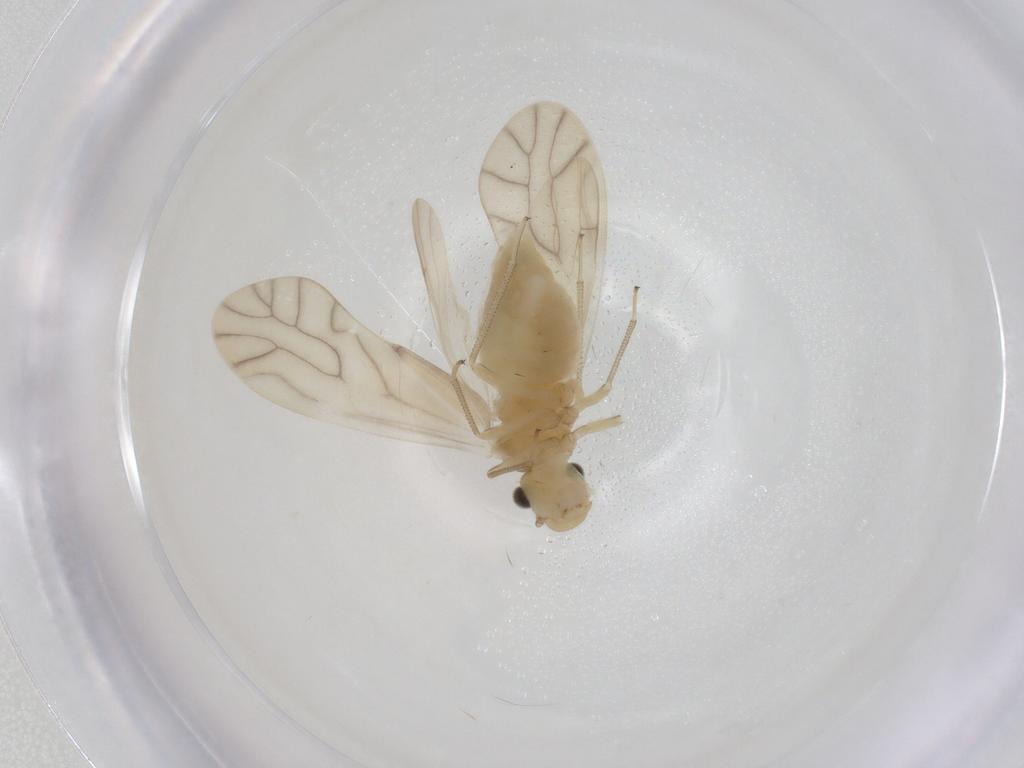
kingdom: Animalia
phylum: Arthropoda
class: Insecta
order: Psocodea
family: Caeciliusidae
